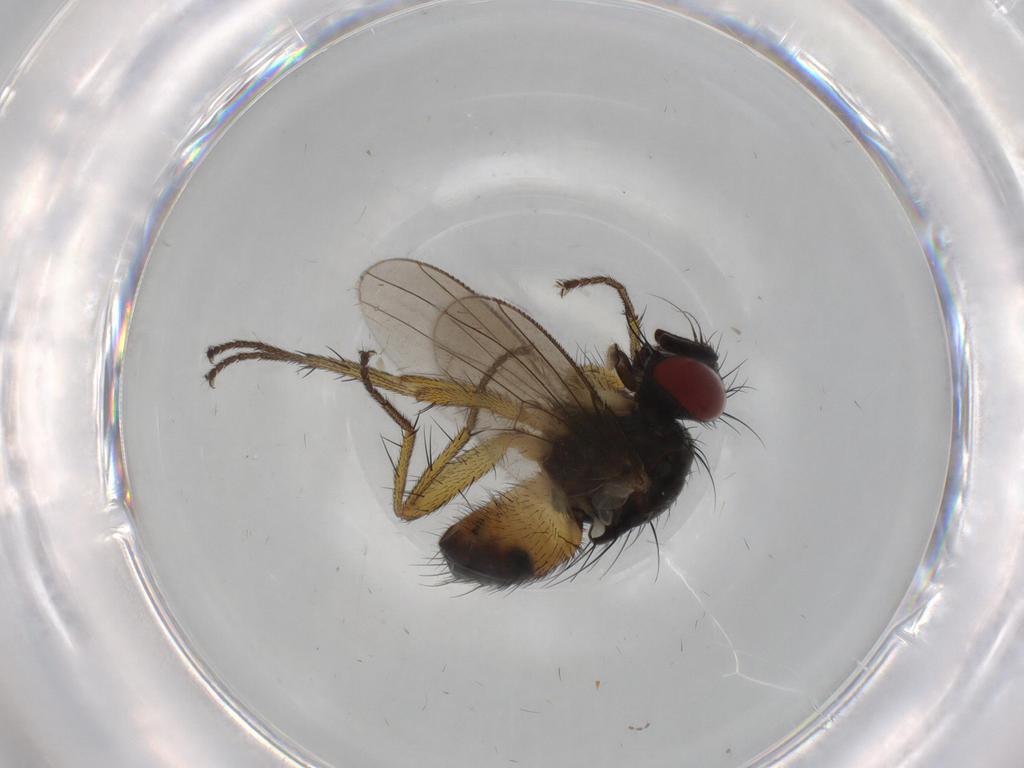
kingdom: Animalia
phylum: Arthropoda
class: Insecta
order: Diptera
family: Muscidae
